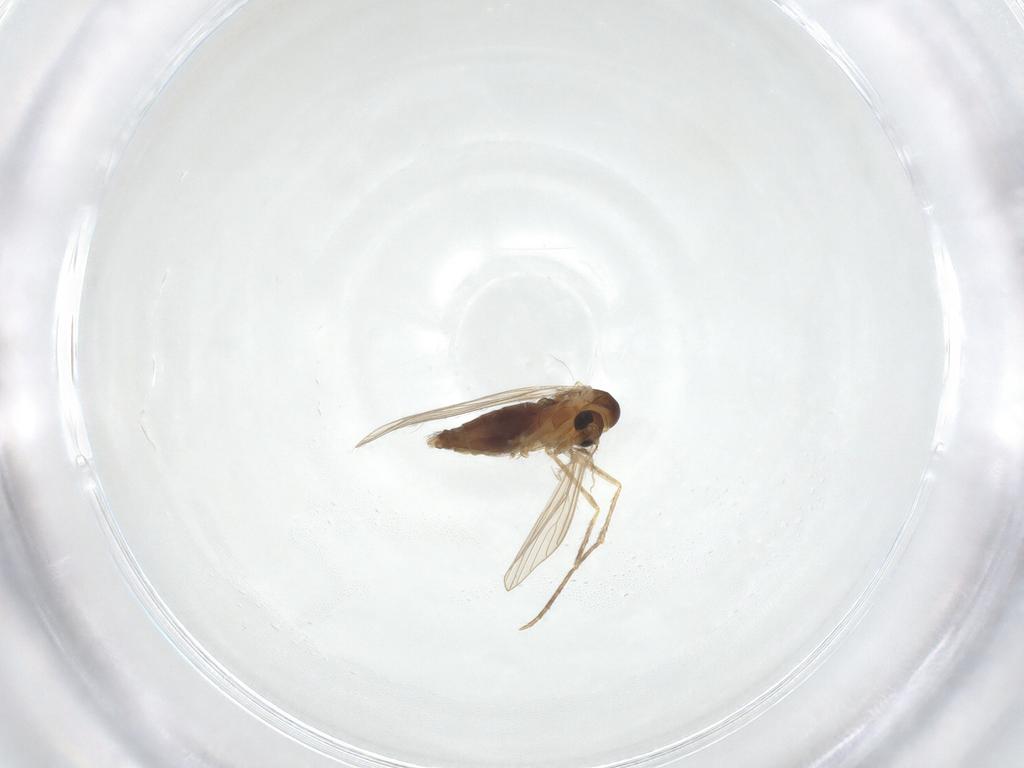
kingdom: Animalia
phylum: Arthropoda
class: Insecta
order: Diptera
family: Psychodidae
